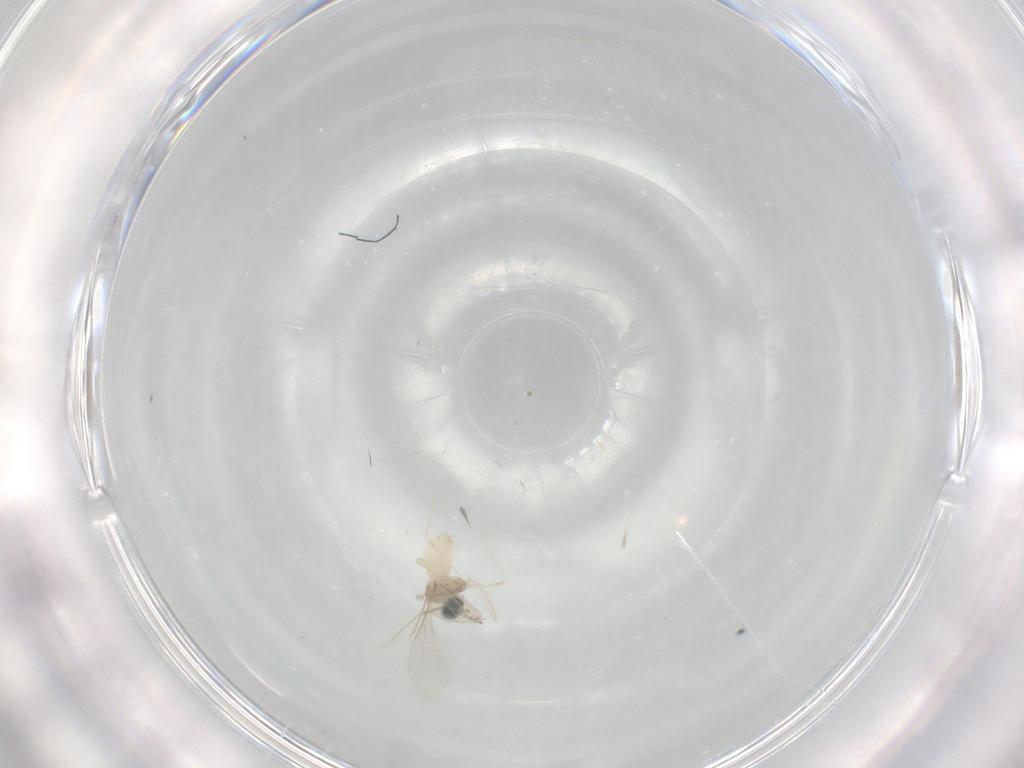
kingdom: Animalia
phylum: Arthropoda
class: Insecta
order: Diptera
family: Cecidomyiidae
